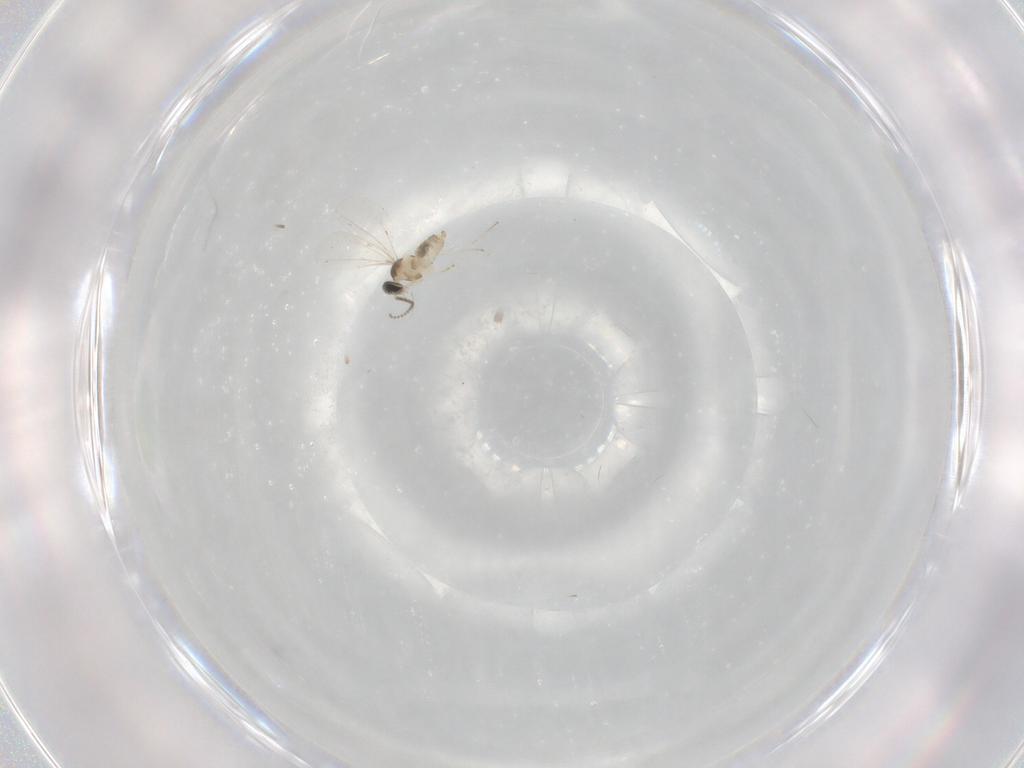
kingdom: Animalia
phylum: Arthropoda
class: Insecta
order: Diptera
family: Cecidomyiidae
